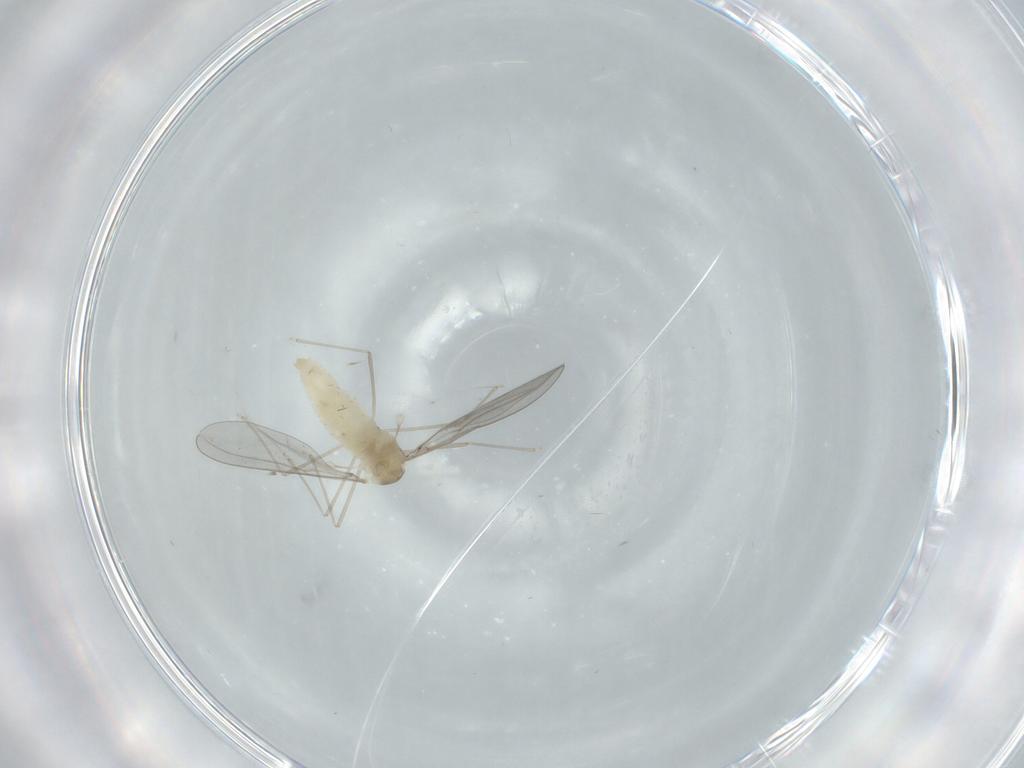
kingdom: Animalia
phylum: Arthropoda
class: Insecta
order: Diptera
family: Cecidomyiidae
